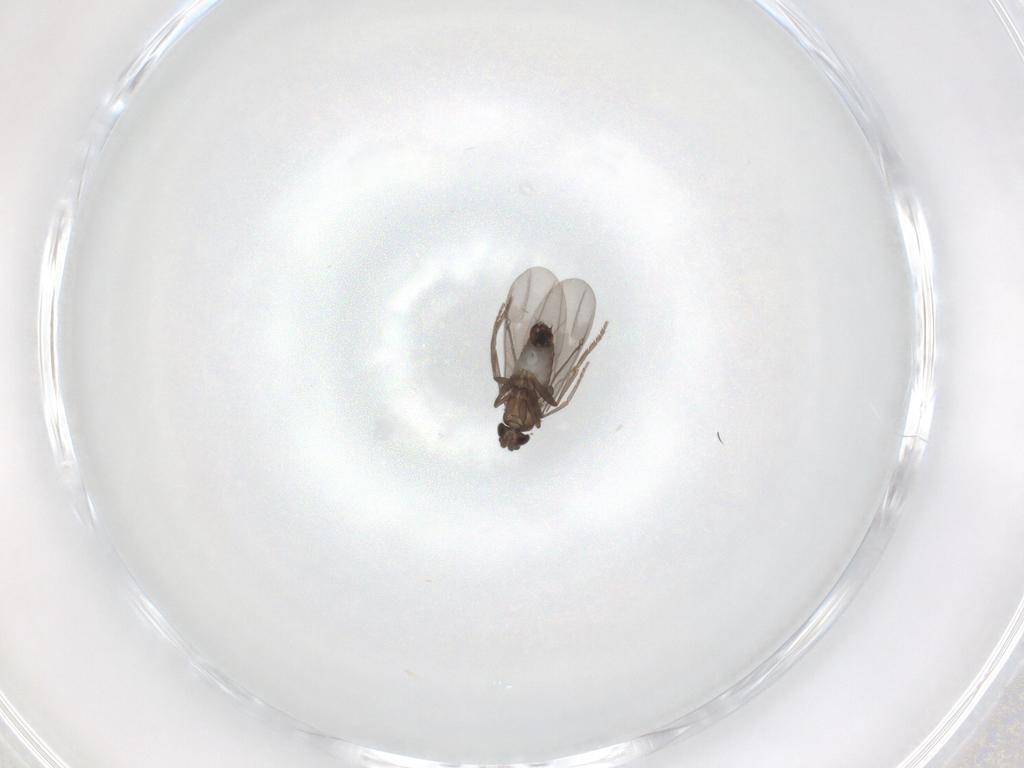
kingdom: Animalia
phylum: Arthropoda
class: Insecta
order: Diptera
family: Phoridae
